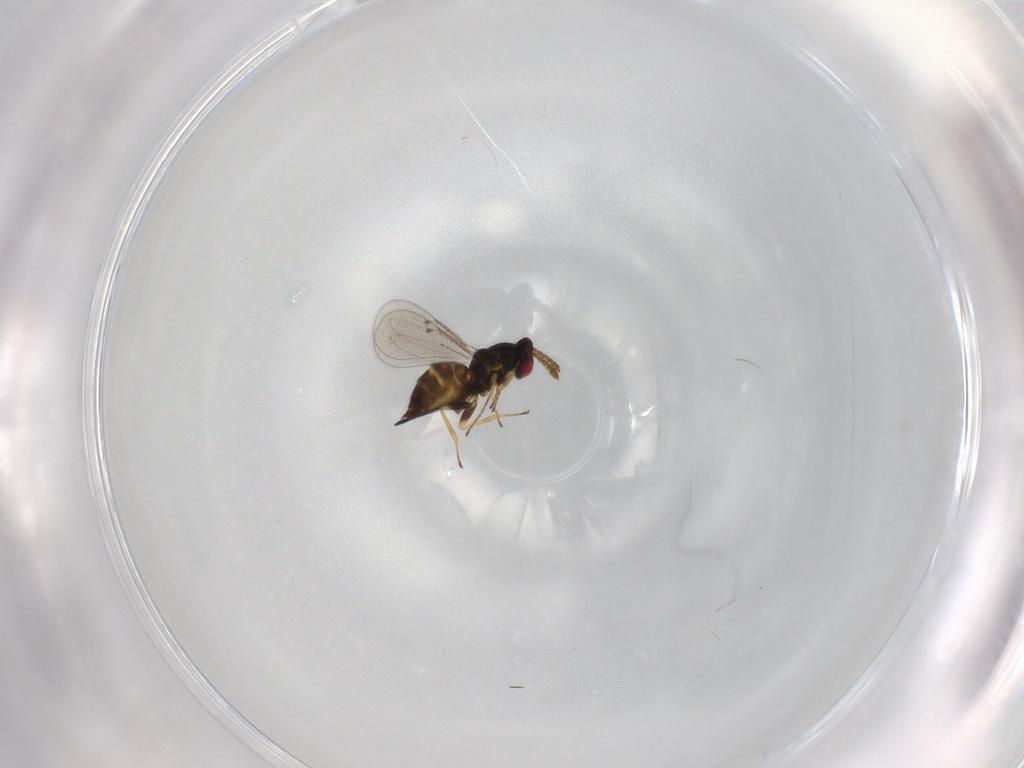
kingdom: Animalia
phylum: Arthropoda
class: Insecta
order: Hymenoptera
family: Eulophidae
